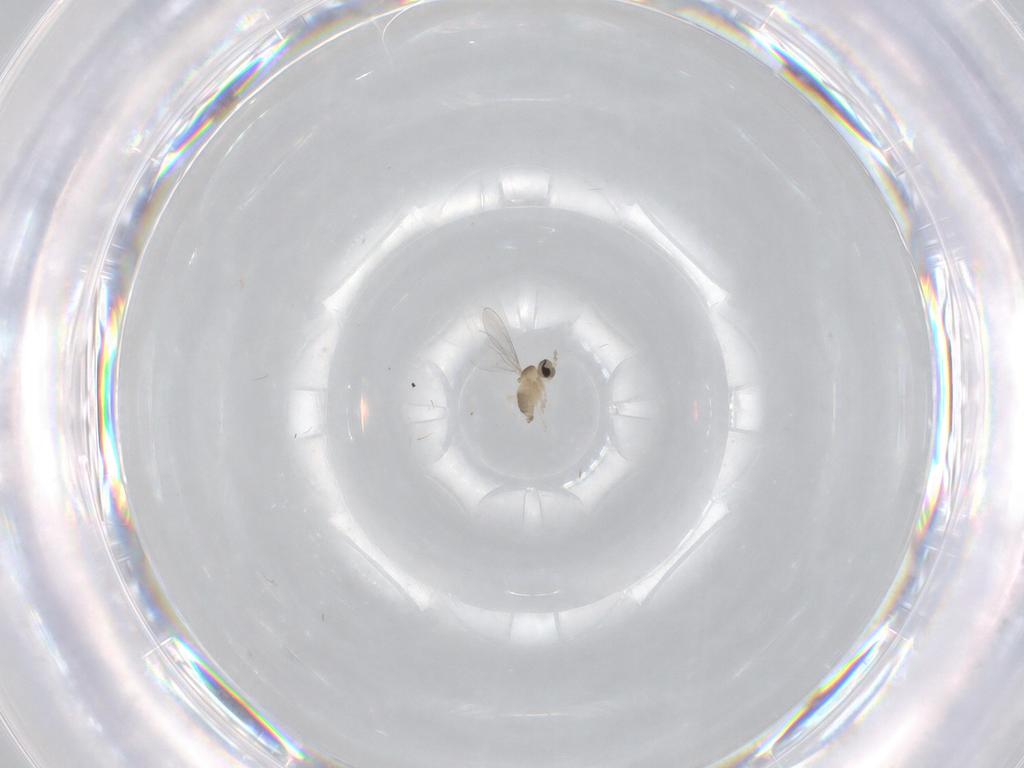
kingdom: Animalia
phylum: Arthropoda
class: Insecta
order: Diptera
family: Cecidomyiidae
